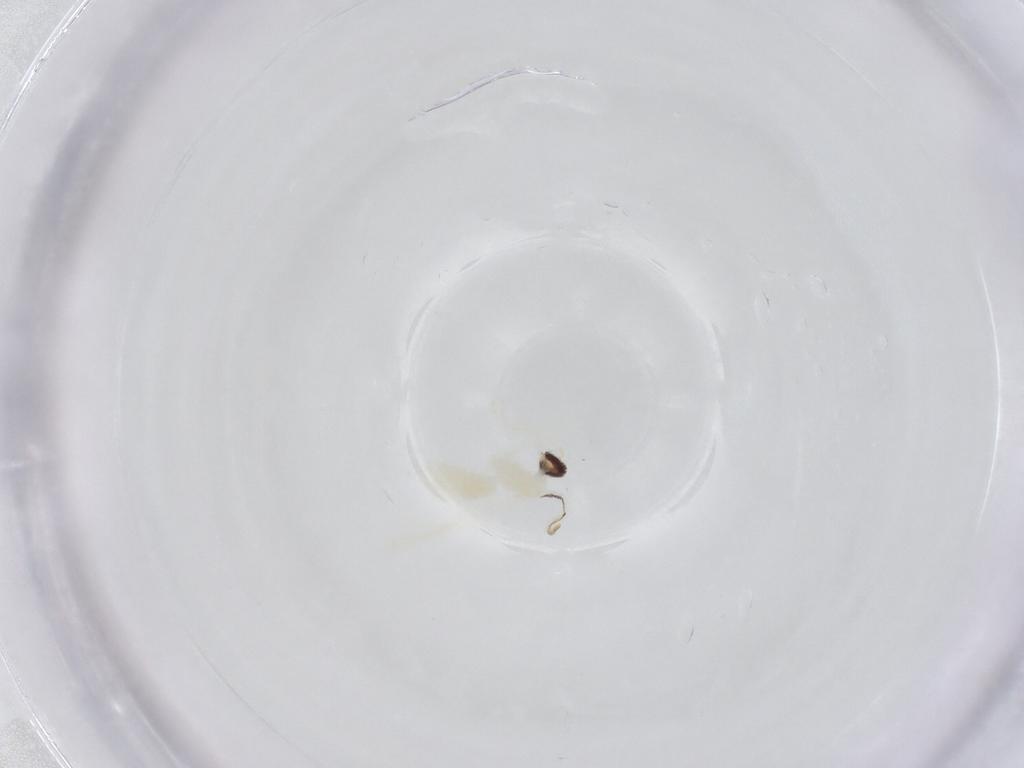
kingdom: Animalia
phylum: Arthropoda
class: Insecta
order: Diptera
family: Cecidomyiidae
